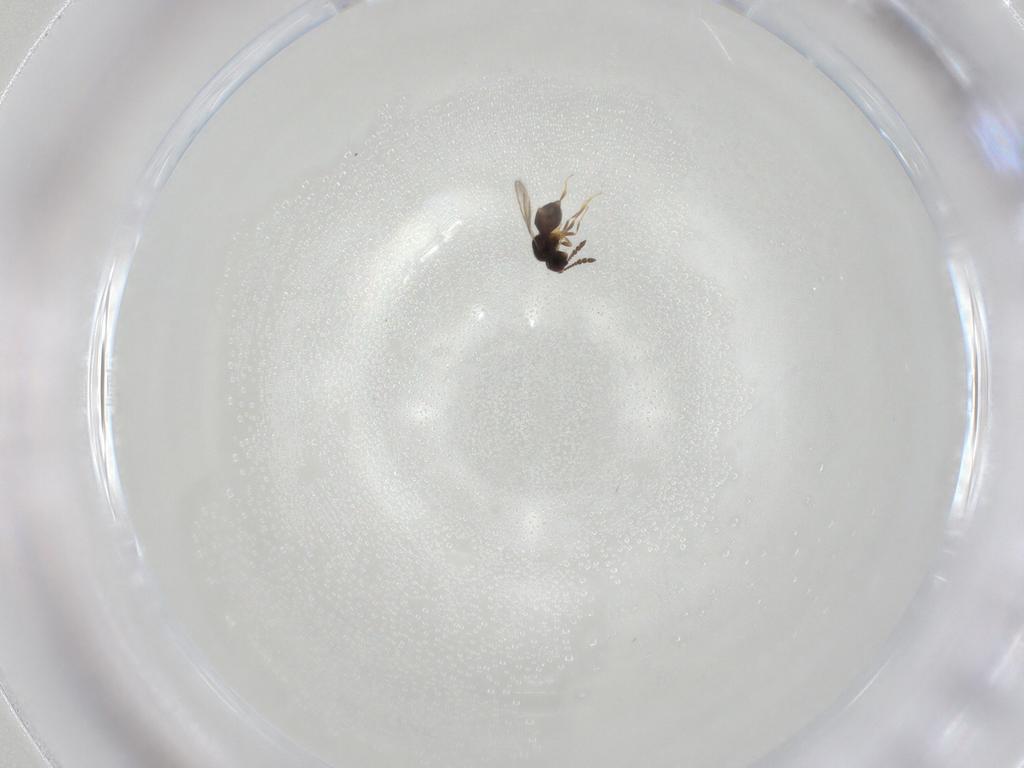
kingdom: Animalia
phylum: Arthropoda
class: Insecta
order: Hymenoptera
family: Ceraphronidae
